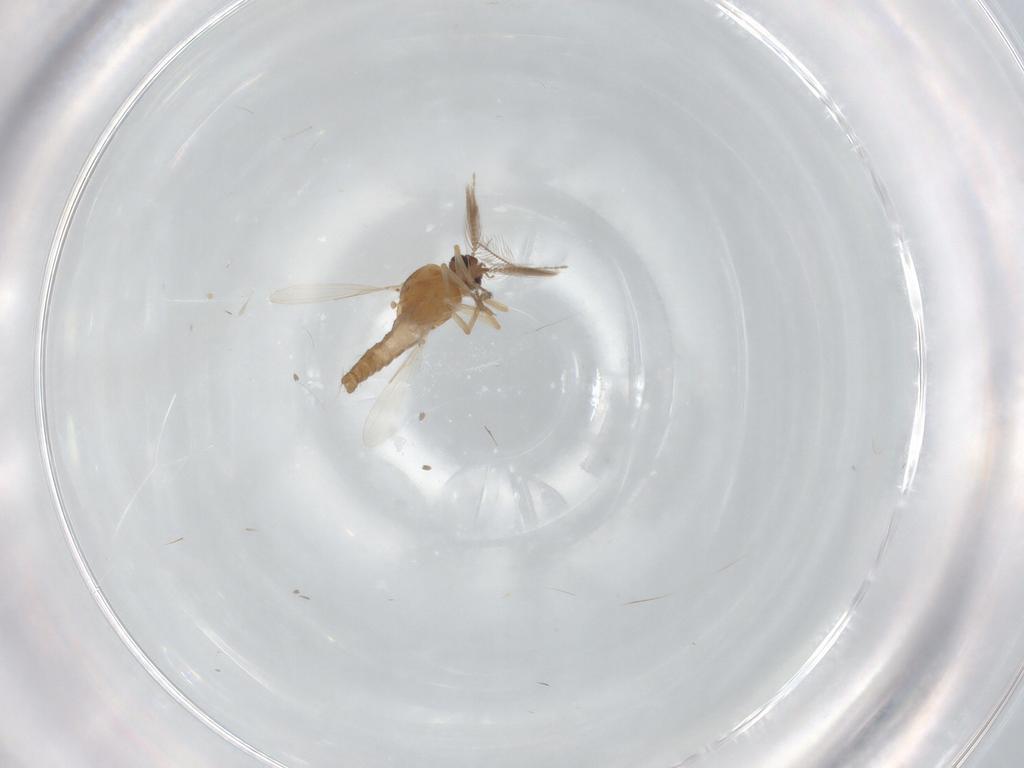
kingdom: Animalia
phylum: Arthropoda
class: Insecta
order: Diptera
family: Ceratopogonidae
